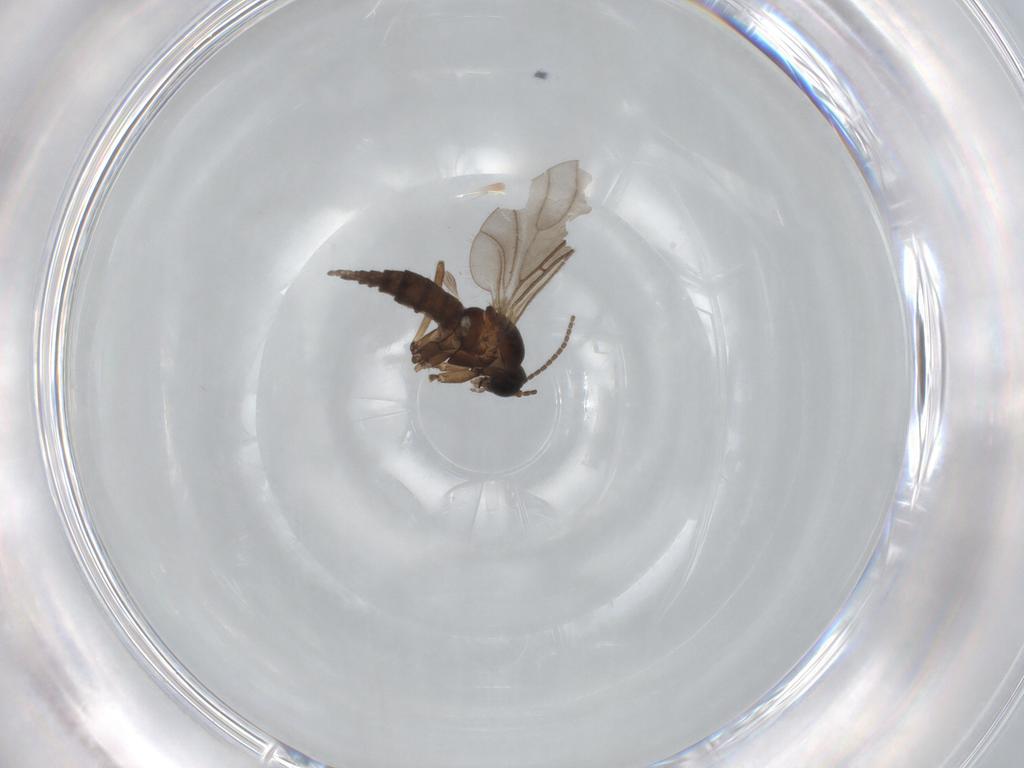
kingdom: Animalia
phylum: Arthropoda
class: Insecta
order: Diptera
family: Sciaridae
